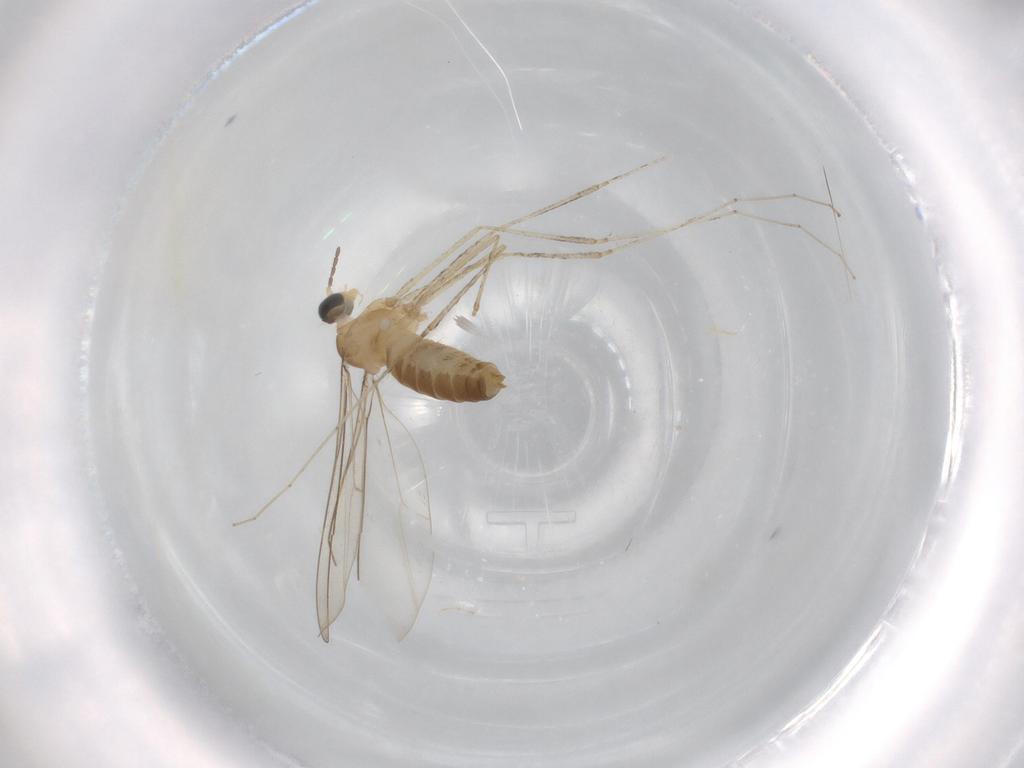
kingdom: Animalia
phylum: Arthropoda
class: Insecta
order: Diptera
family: Cecidomyiidae
